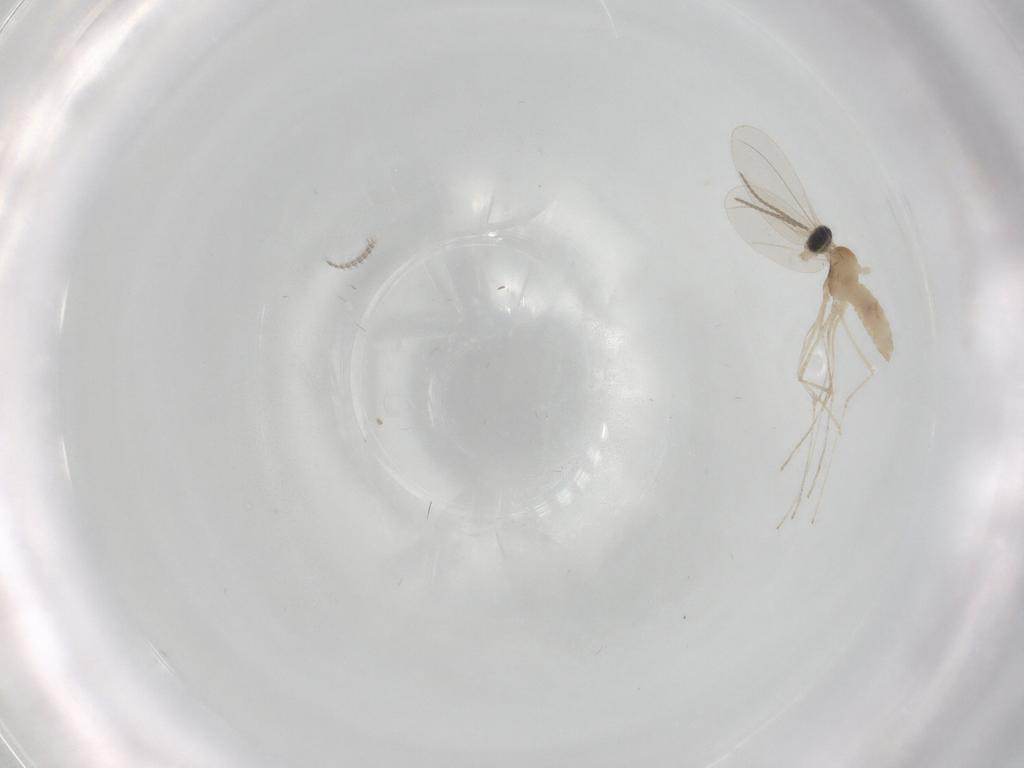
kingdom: Animalia
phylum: Arthropoda
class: Insecta
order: Diptera
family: Cecidomyiidae
